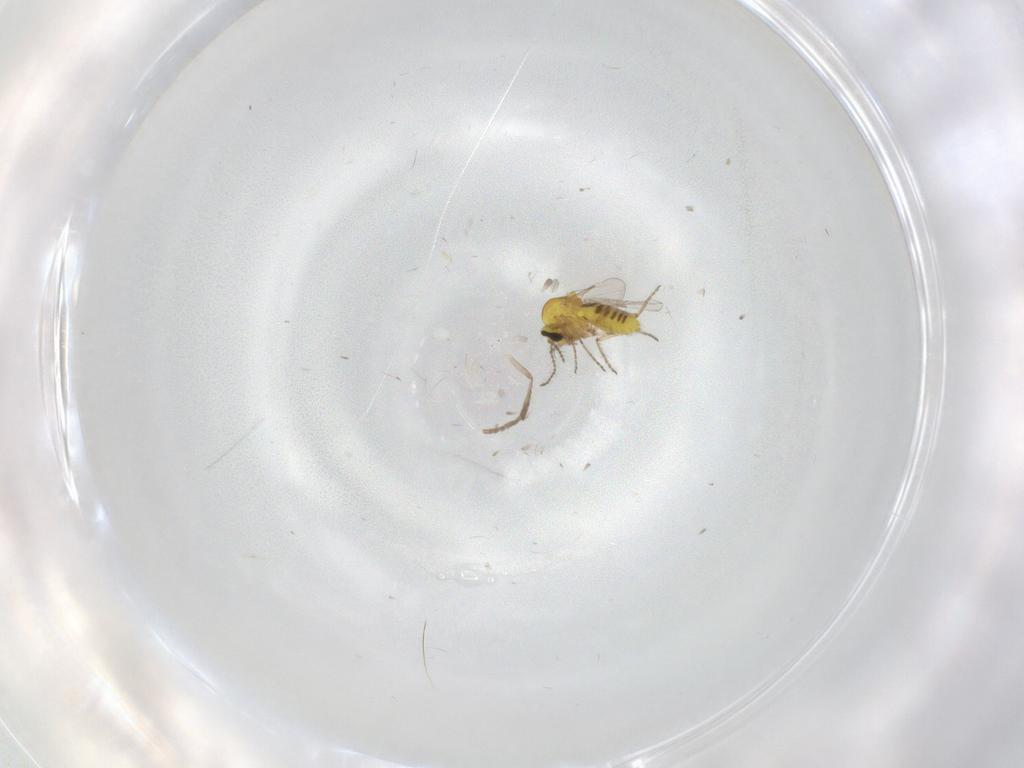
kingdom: Animalia
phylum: Arthropoda
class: Insecta
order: Diptera
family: Ceratopogonidae
